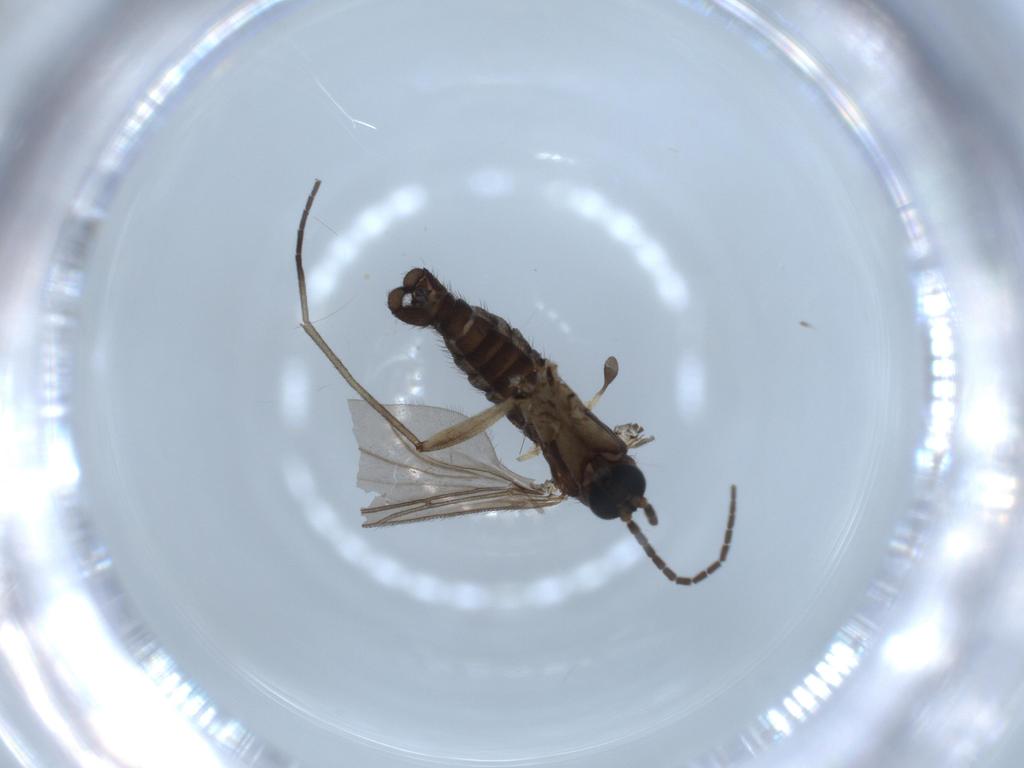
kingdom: Animalia
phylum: Arthropoda
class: Insecta
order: Diptera
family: Sciaridae
